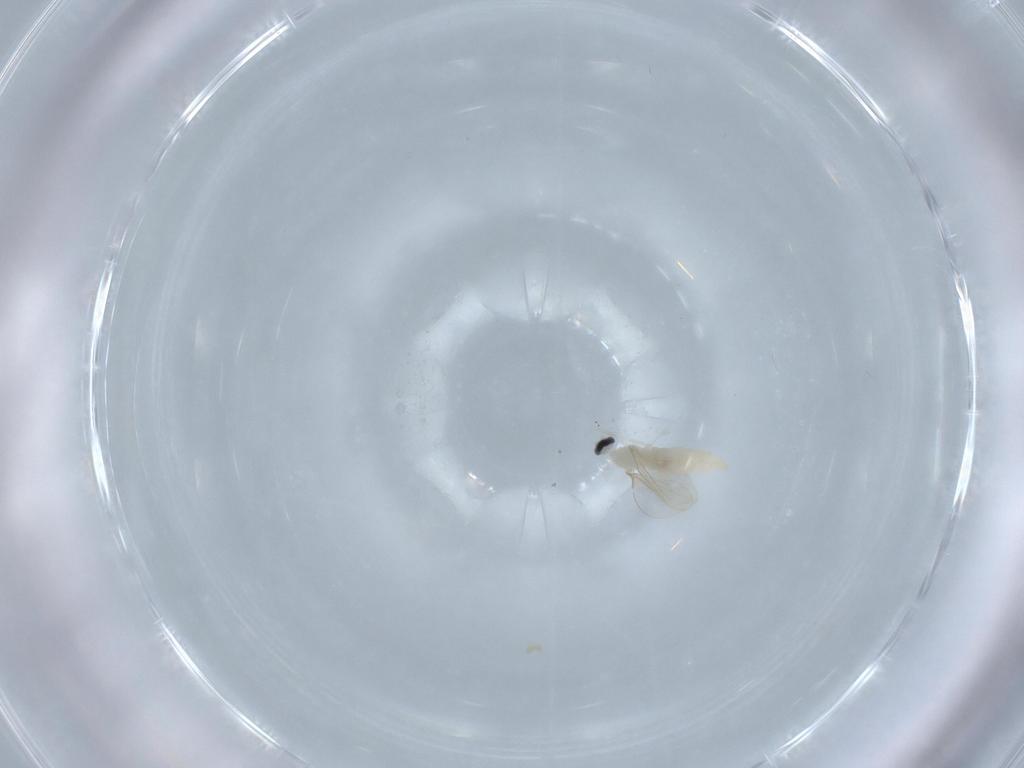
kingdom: Animalia
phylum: Arthropoda
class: Insecta
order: Diptera
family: Cecidomyiidae
